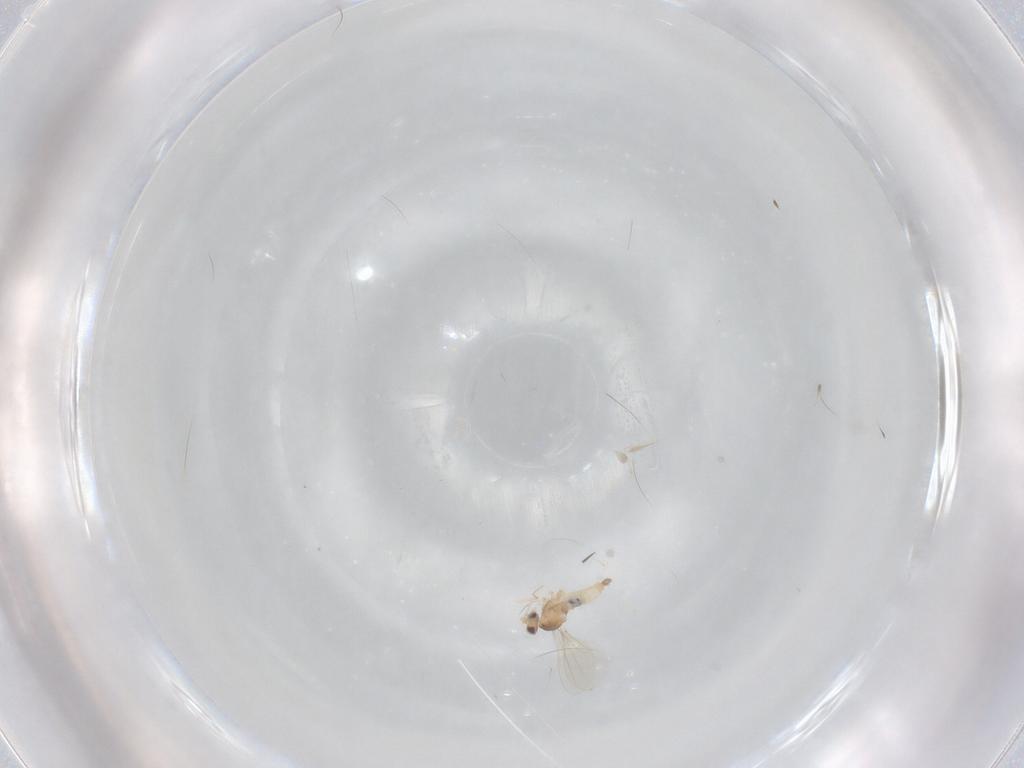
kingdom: Animalia
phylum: Arthropoda
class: Insecta
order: Diptera
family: Cecidomyiidae
